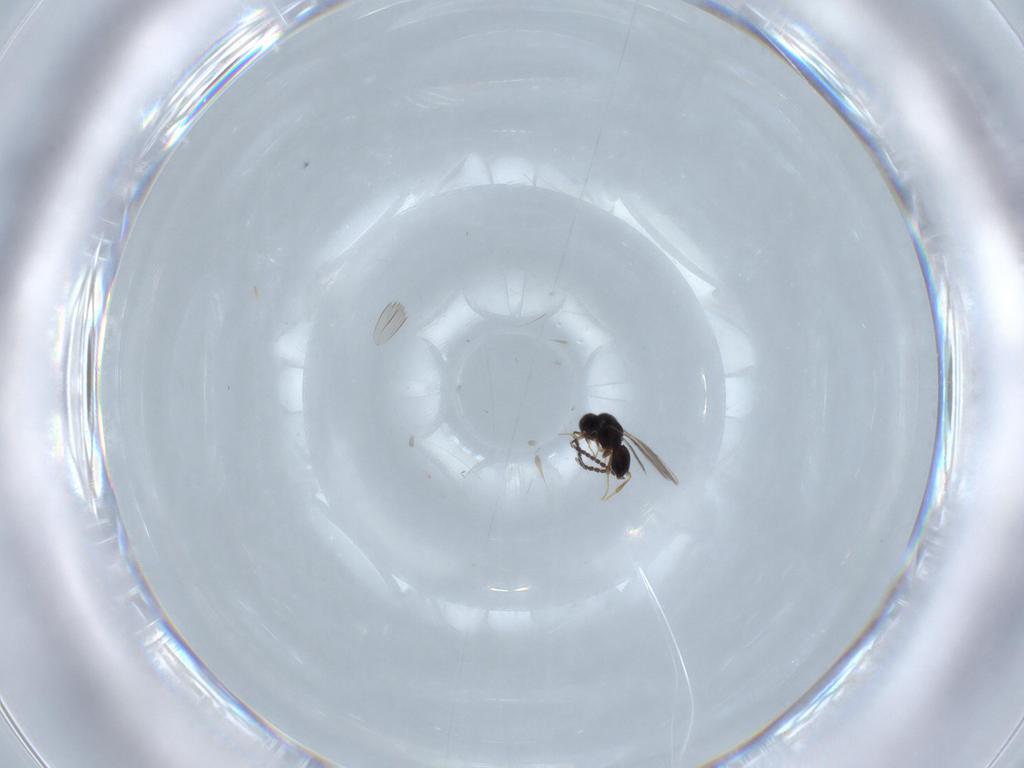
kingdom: Animalia
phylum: Arthropoda
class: Insecta
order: Hymenoptera
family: Ceraphronidae
